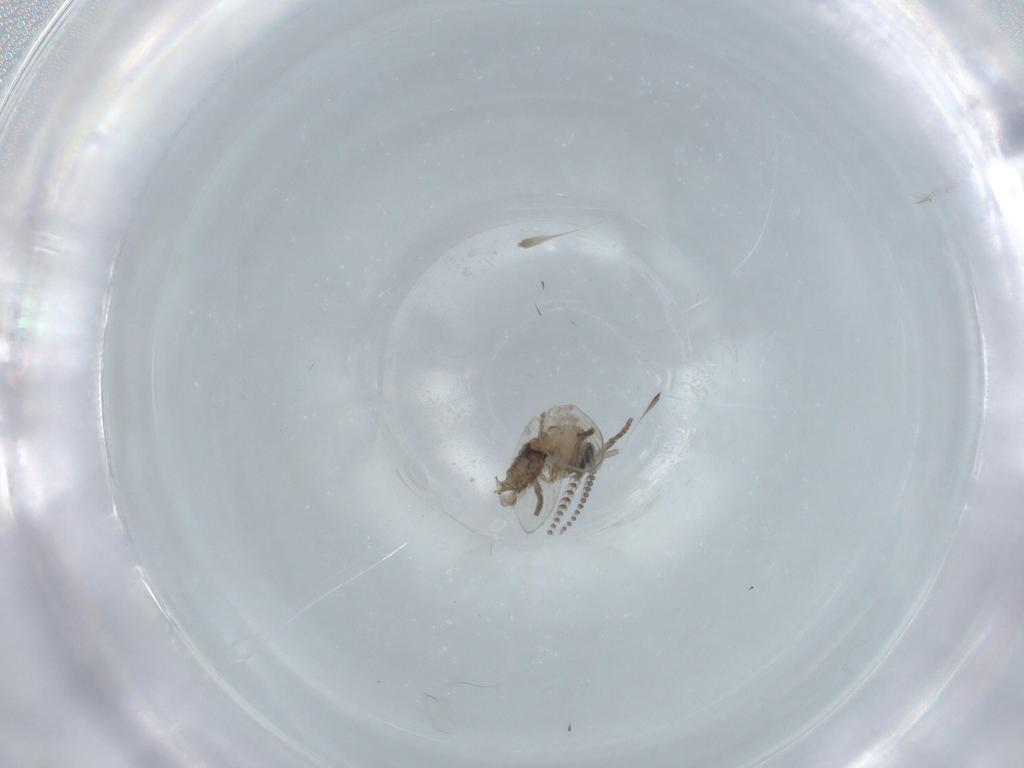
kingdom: Animalia
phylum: Arthropoda
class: Insecta
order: Diptera
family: Psychodidae
